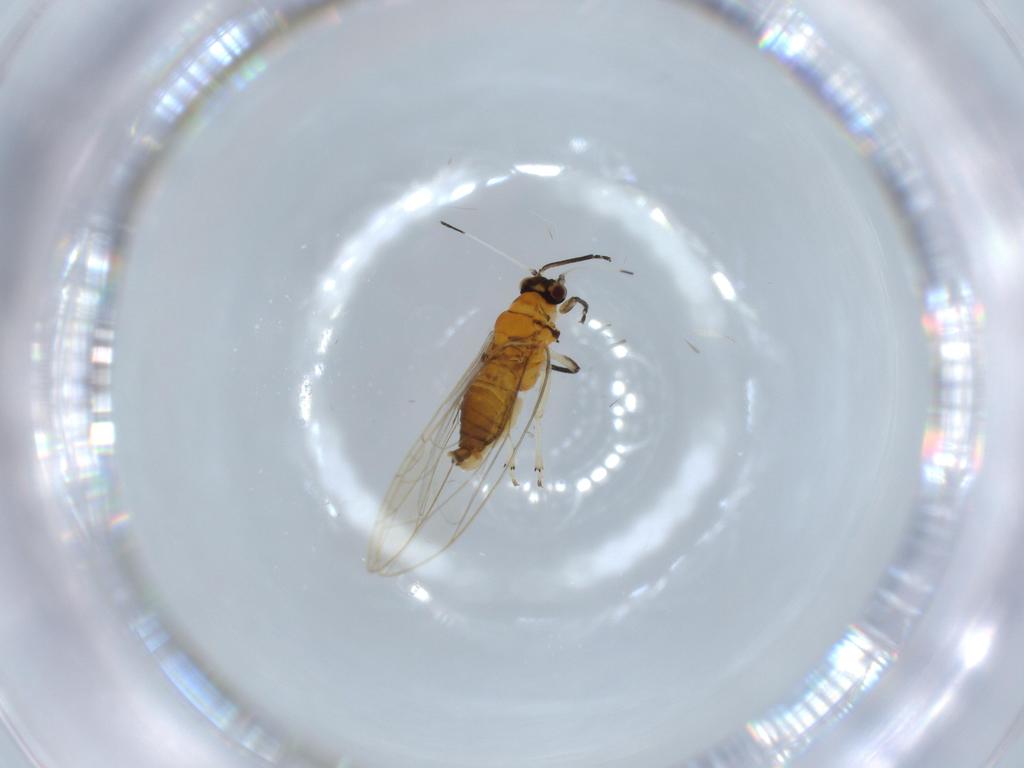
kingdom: Animalia
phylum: Arthropoda
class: Insecta
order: Hemiptera
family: Triozidae
